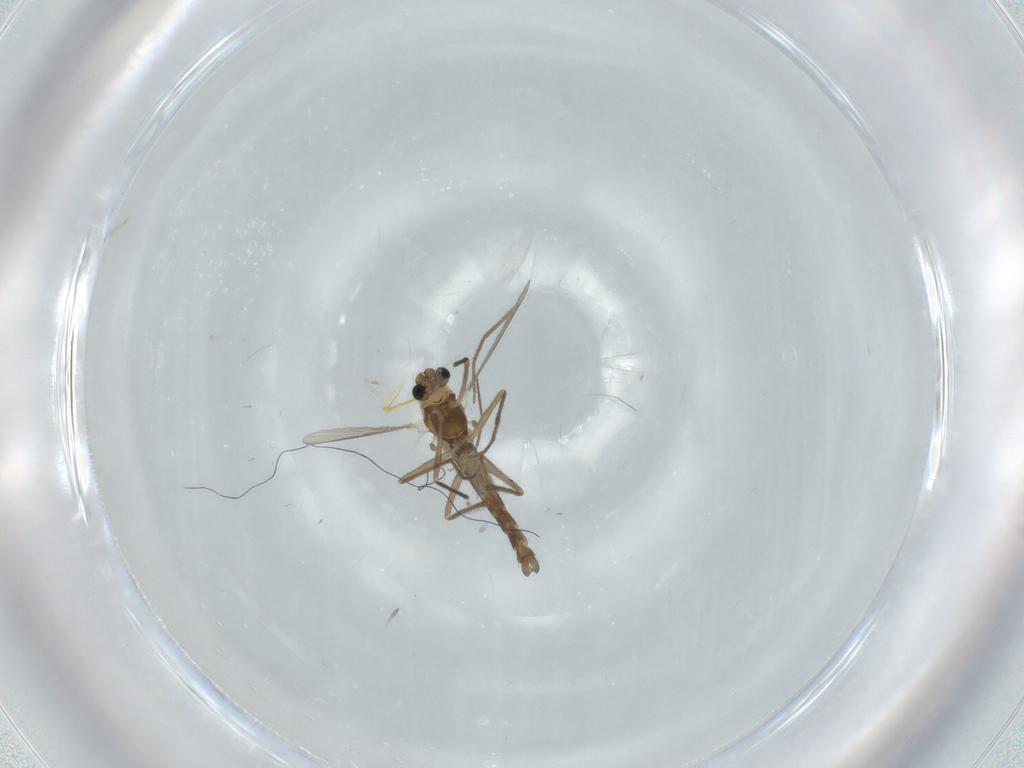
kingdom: Animalia
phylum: Arthropoda
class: Insecta
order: Diptera
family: Chironomidae
